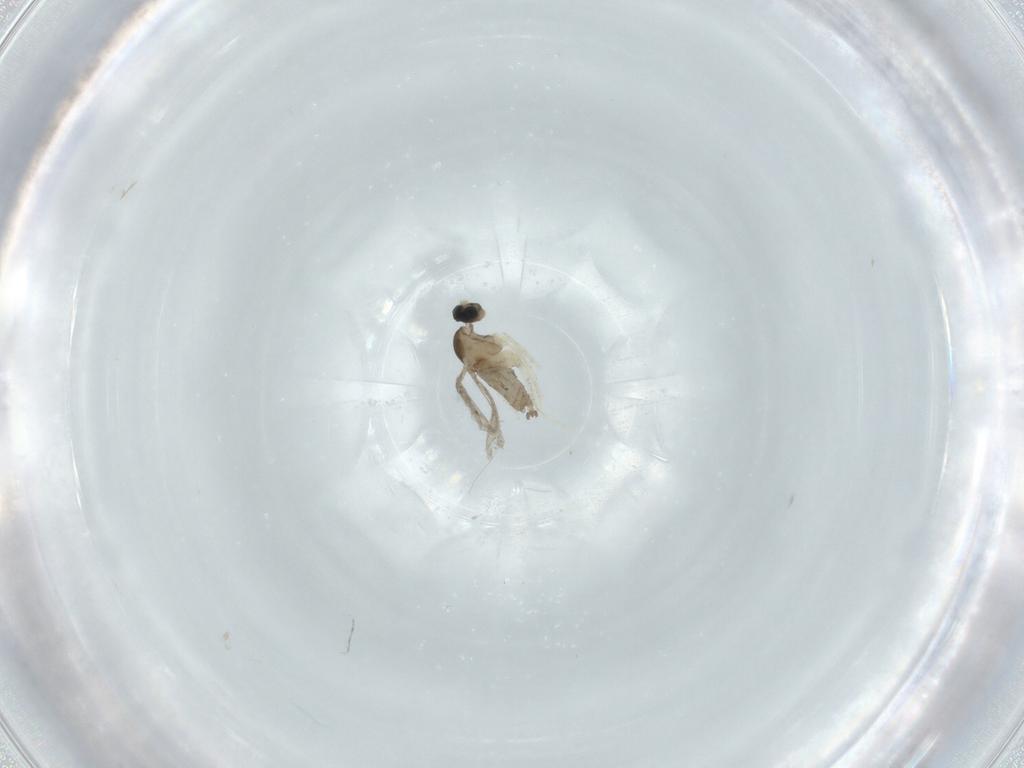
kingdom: Animalia
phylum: Arthropoda
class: Insecta
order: Diptera
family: Cecidomyiidae
